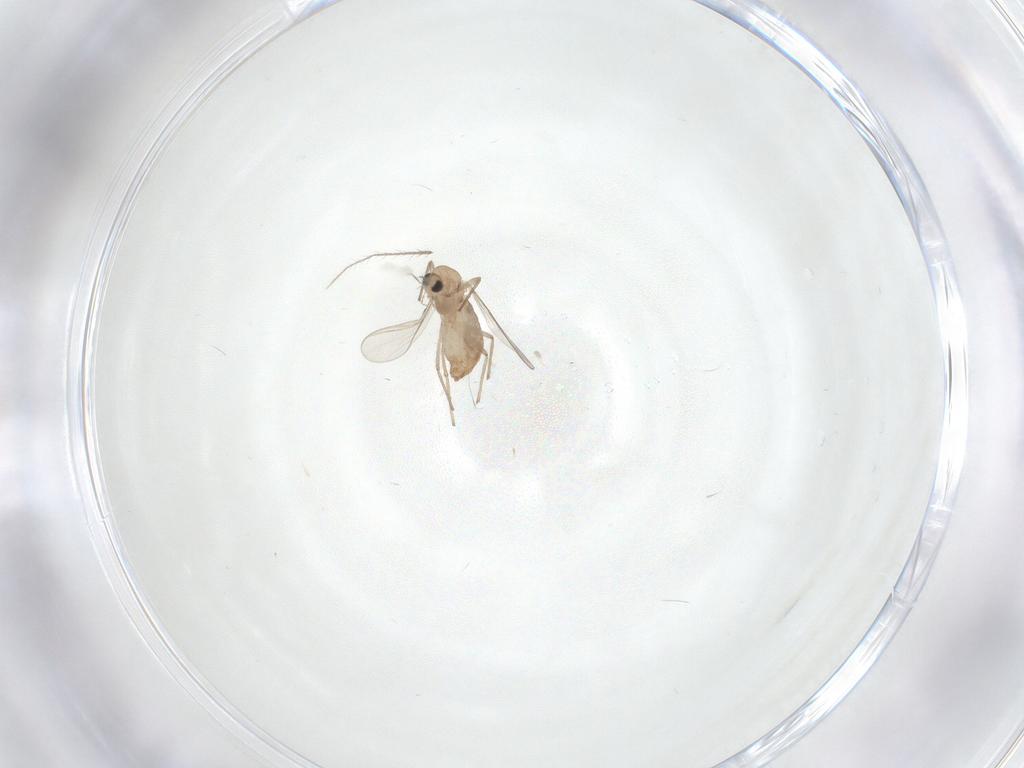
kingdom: Animalia
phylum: Arthropoda
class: Insecta
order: Diptera
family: Chironomidae
